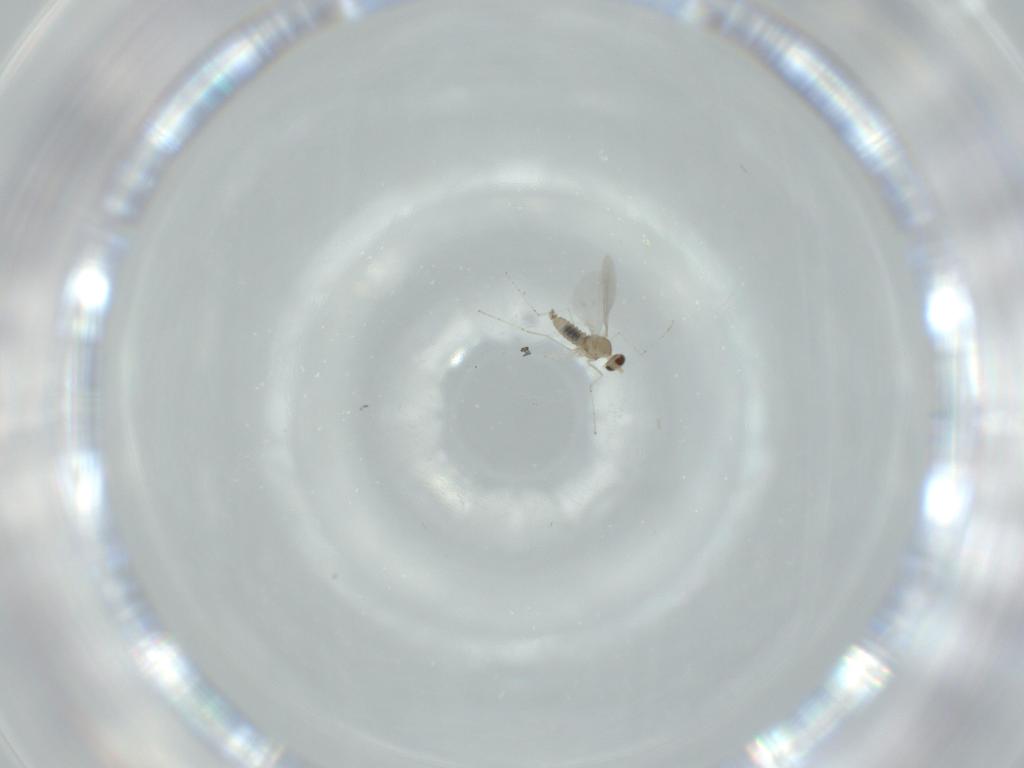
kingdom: Animalia
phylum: Arthropoda
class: Insecta
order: Diptera
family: Cecidomyiidae
